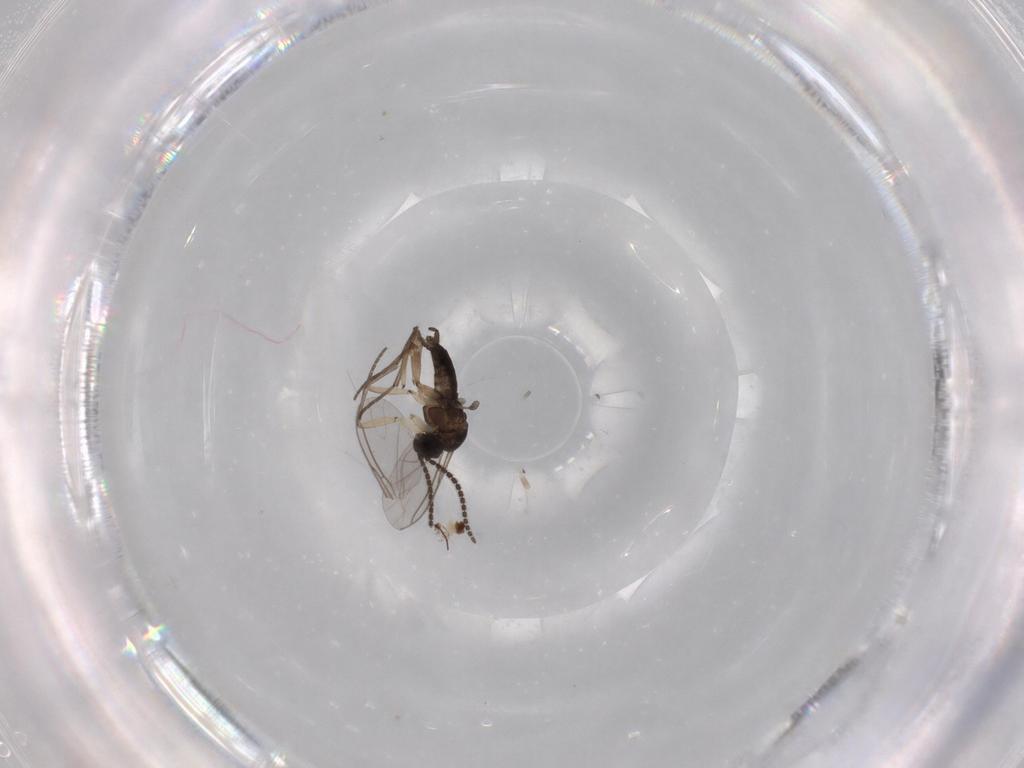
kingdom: Animalia
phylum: Arthropoda
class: Insecta
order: Diptera
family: Sciaridae
